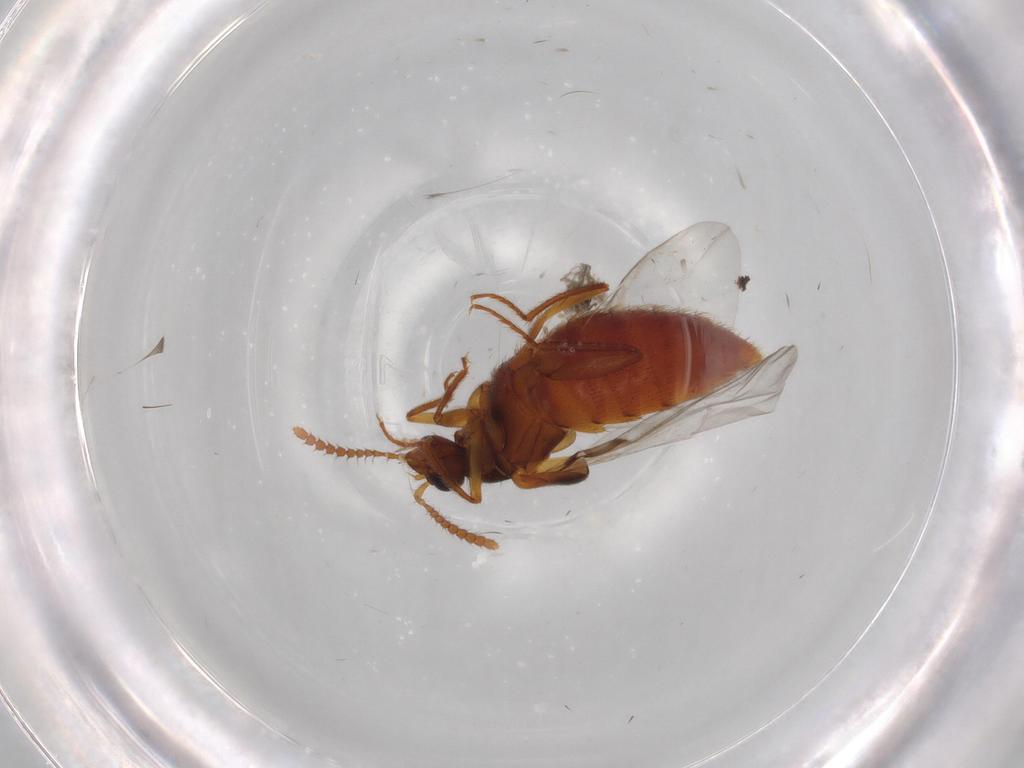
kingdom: Animalia
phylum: Arthropoda
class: Insecta
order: Coleoptera
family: Staphylinidae
